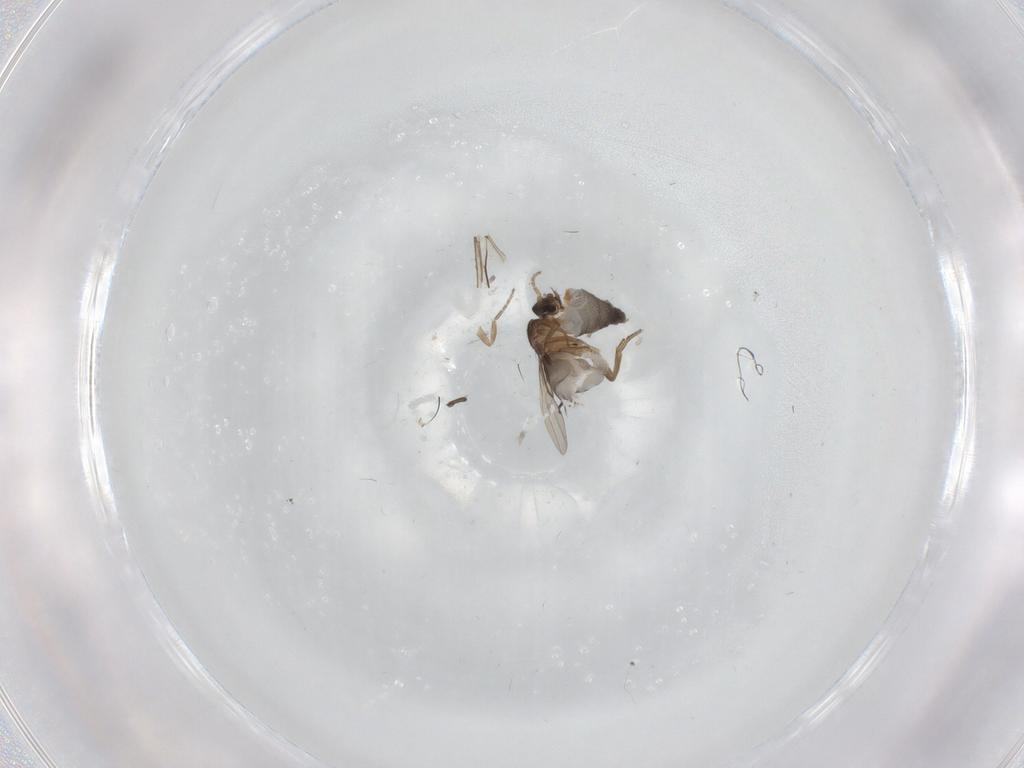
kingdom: Animalia
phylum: Arthropoda
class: Insecta
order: Diptera
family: Phoridae
